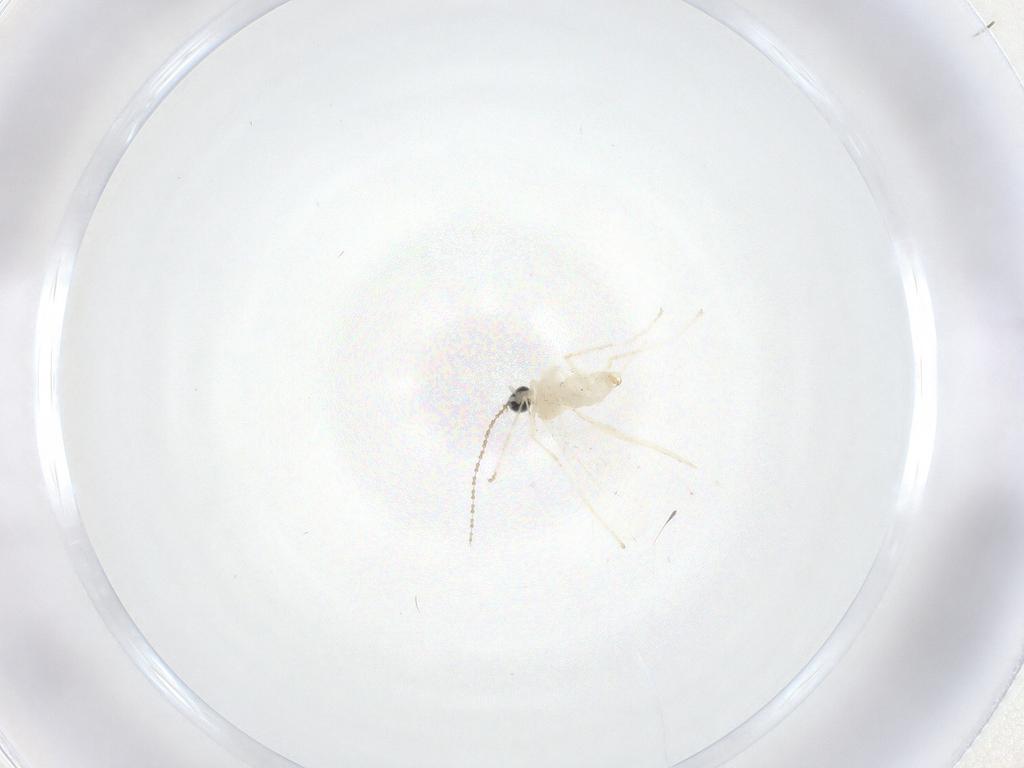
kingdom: Animalia
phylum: Arthropoda
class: Insecta
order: Diptera
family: Cecidomyiidae
